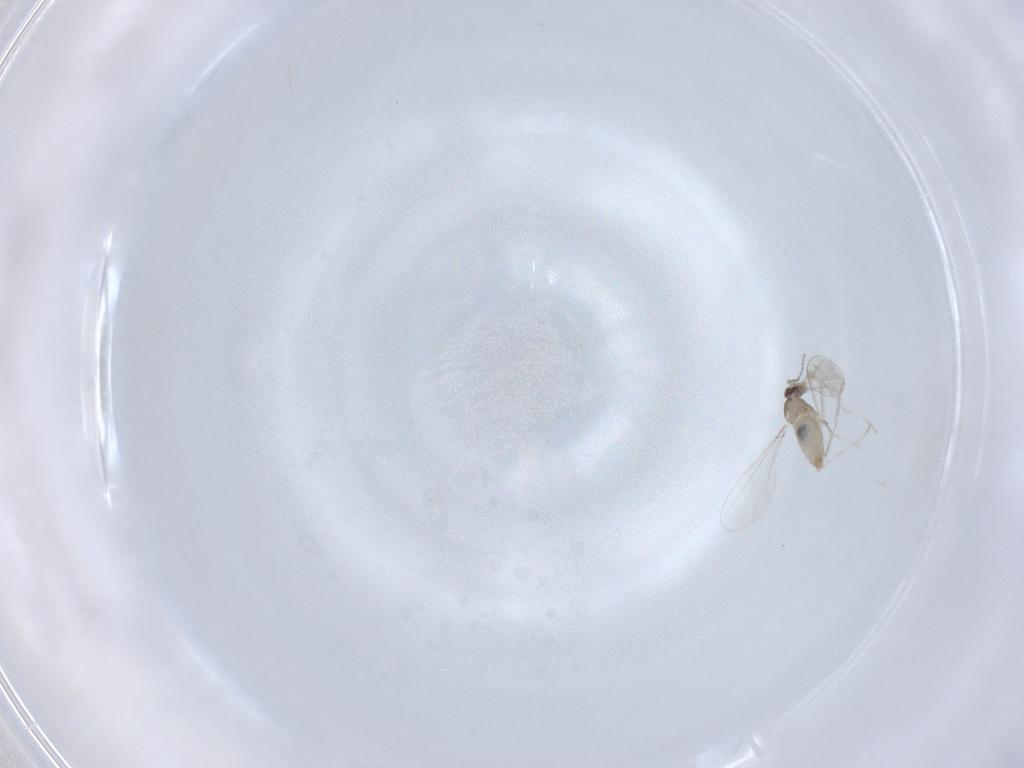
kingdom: Animalia
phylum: Arthropoda
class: Insecta
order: Diptera
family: Cecidomyiidae
